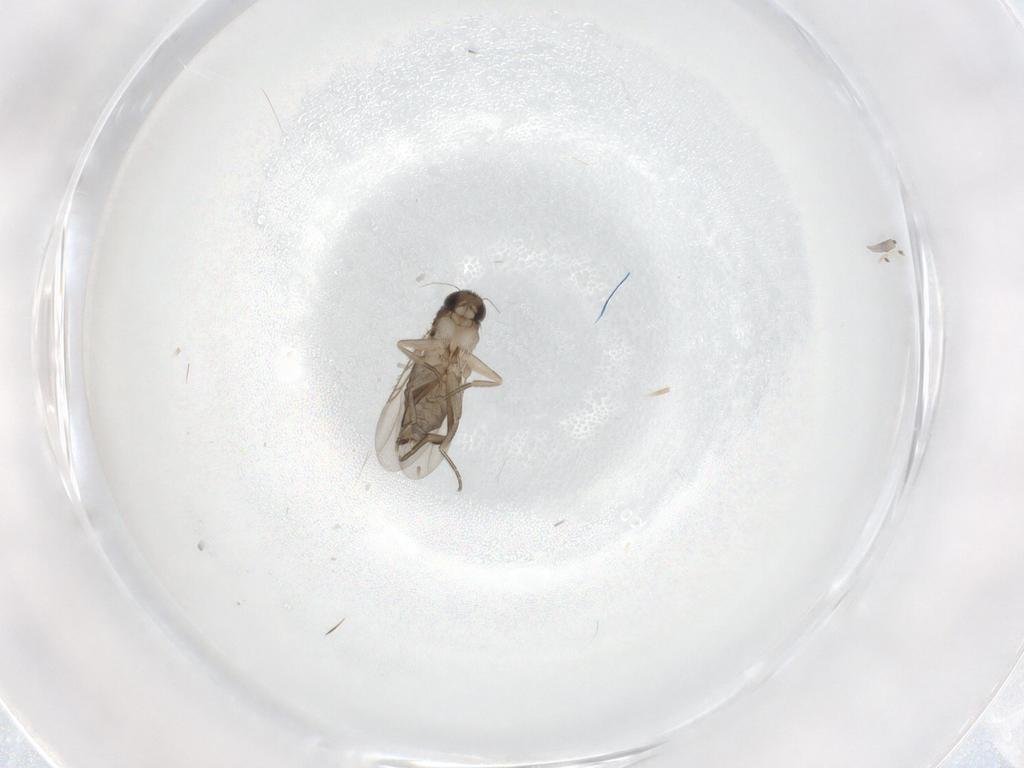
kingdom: Animalia
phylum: Arthropoda
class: Insecta
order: Diptera
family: Phoridae
